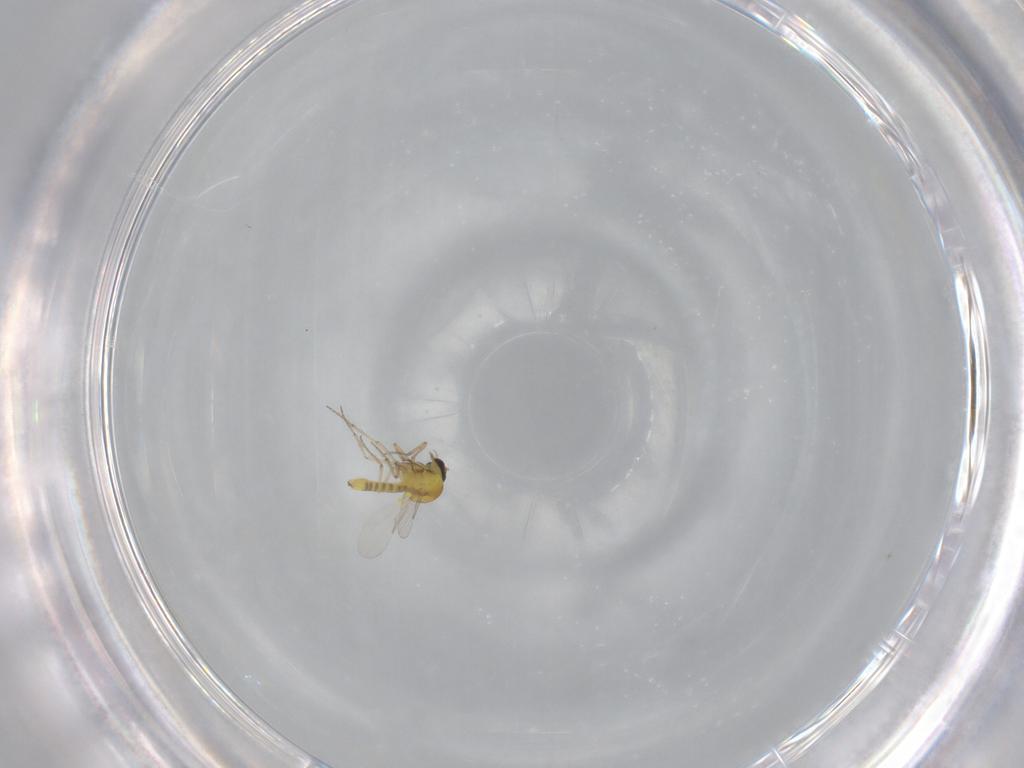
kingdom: Animalia
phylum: Arthropoda
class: Insecta
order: Diptera
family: Ceratopogonidae
